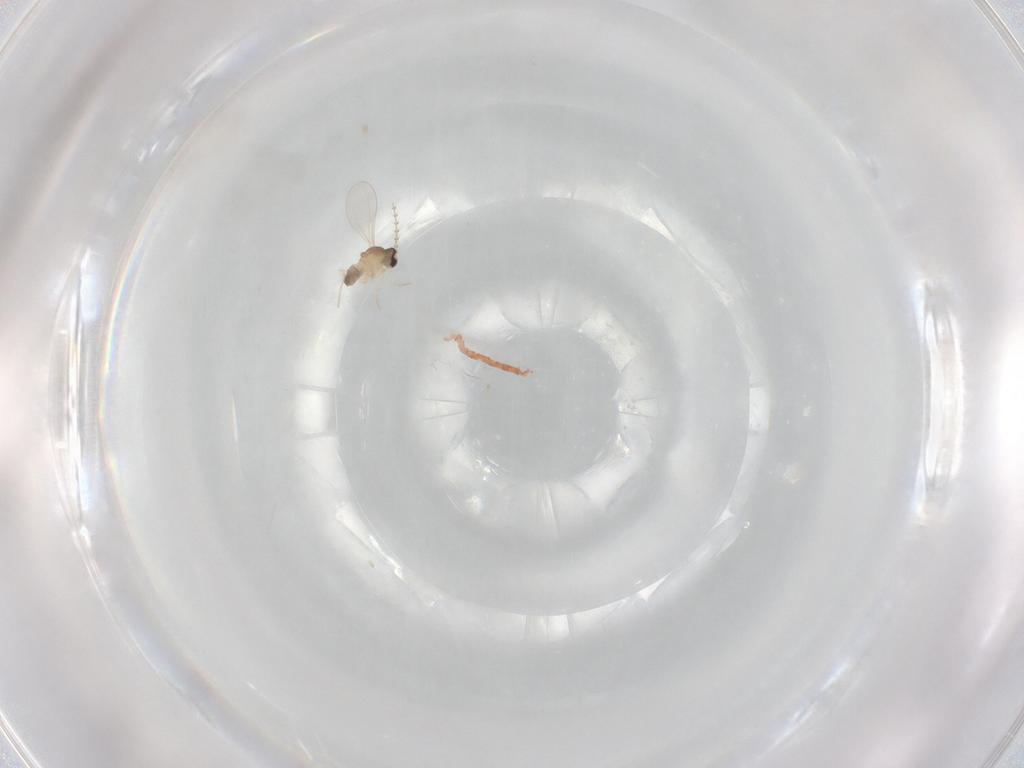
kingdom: Animalia
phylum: Arthropoda
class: Insecta
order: Diptera
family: Cecidomyiidae
